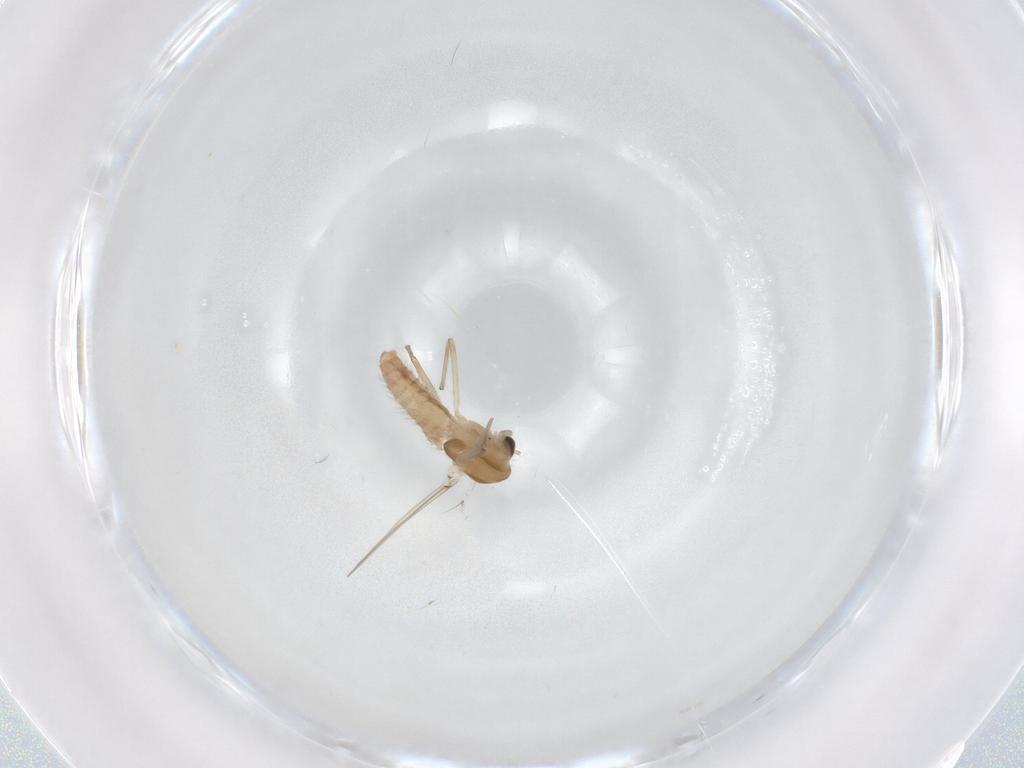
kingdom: Animalia
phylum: Arthropoda
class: Insecta
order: Diptera
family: Chironomidae
